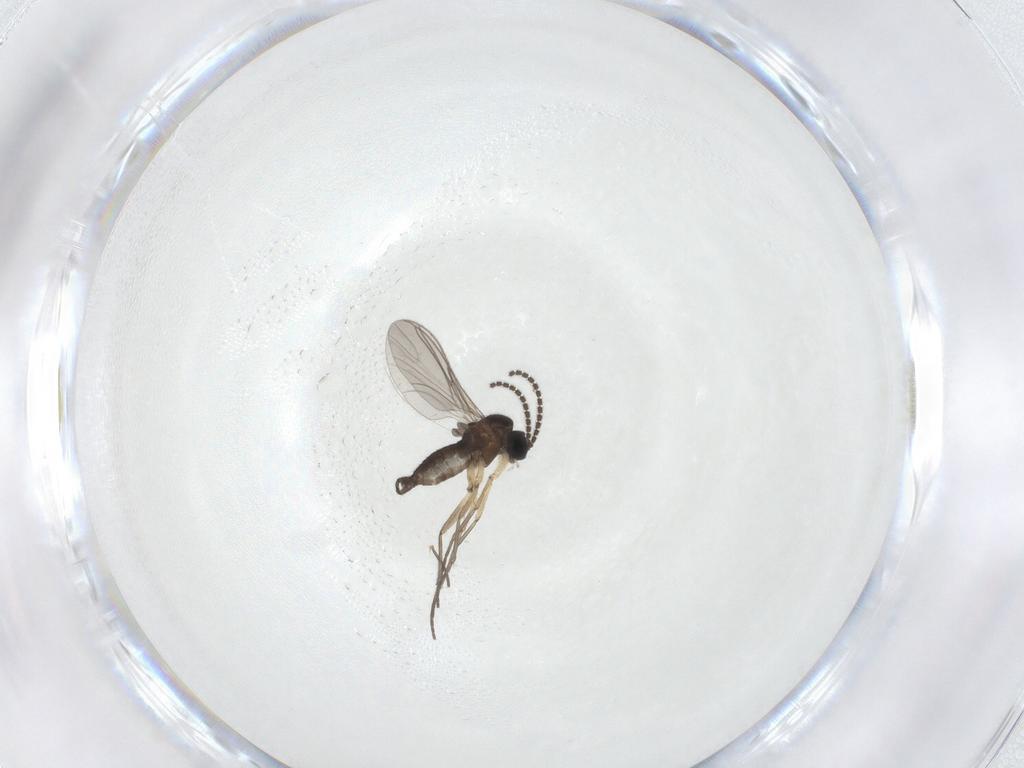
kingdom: Animalia
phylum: Arthropoda
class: Insecta
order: Diptera
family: Sciaridae
